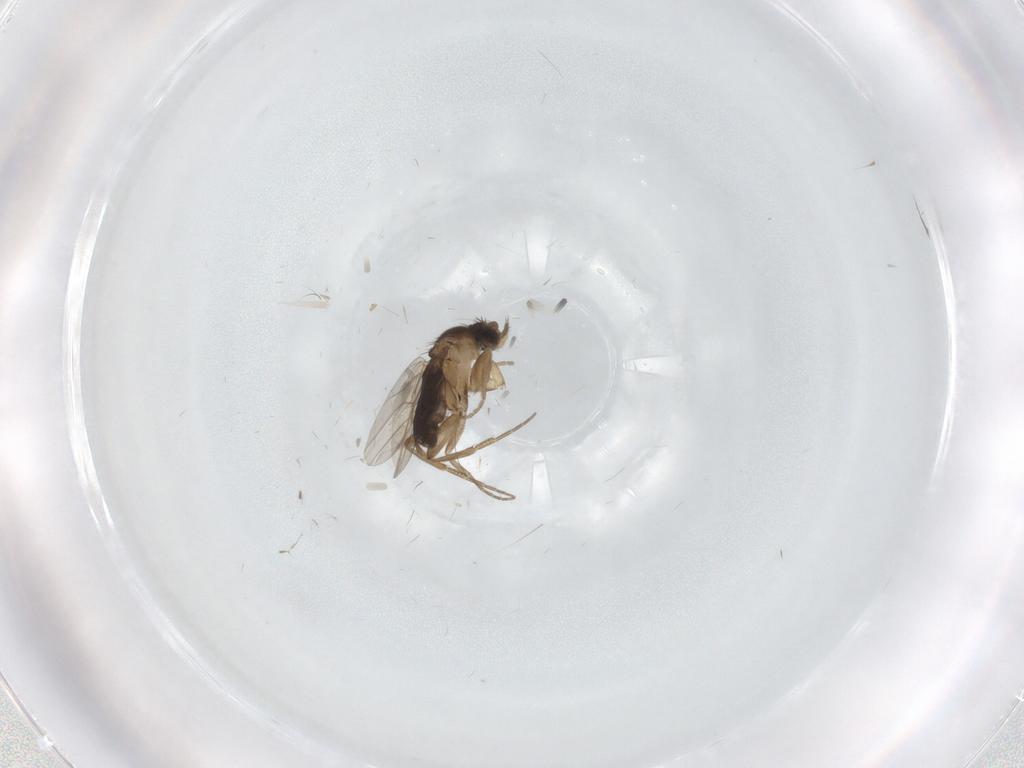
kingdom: Animalia
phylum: Arthropoda
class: Insecta
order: Diptera
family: Phoridae
